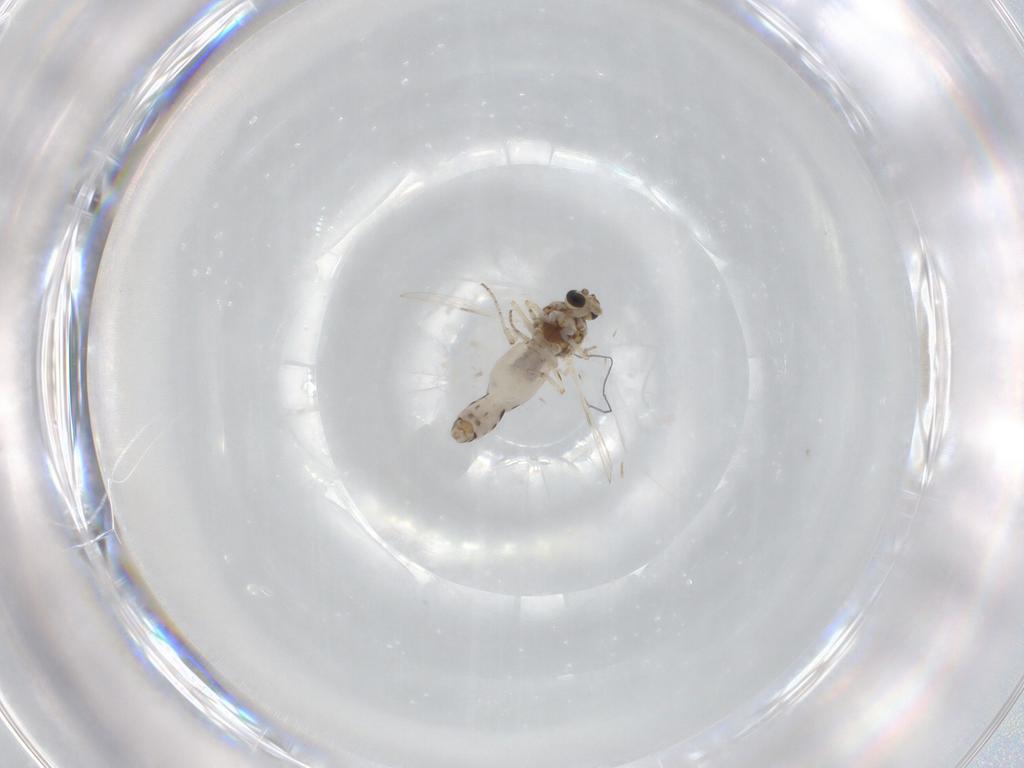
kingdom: Animalia
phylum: Arthropoda
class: Insecta
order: Diptera
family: Ceratopogonidae
